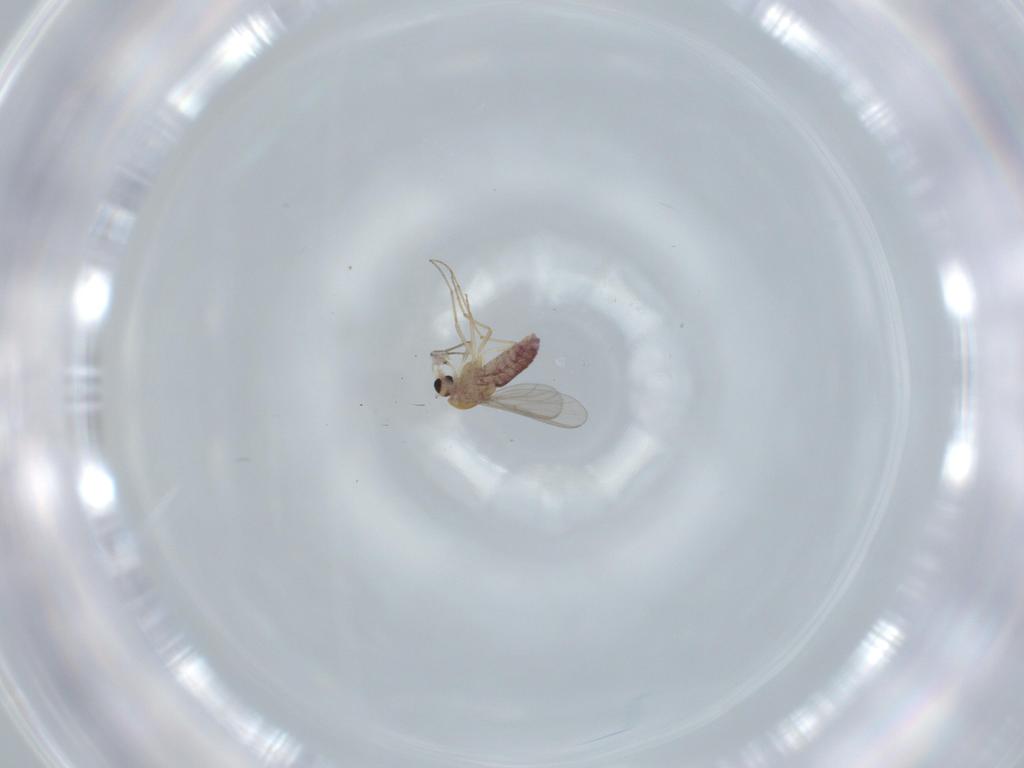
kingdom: Animalia
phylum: Arthropoda
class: Insecta
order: Diptera
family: Chironomidae
